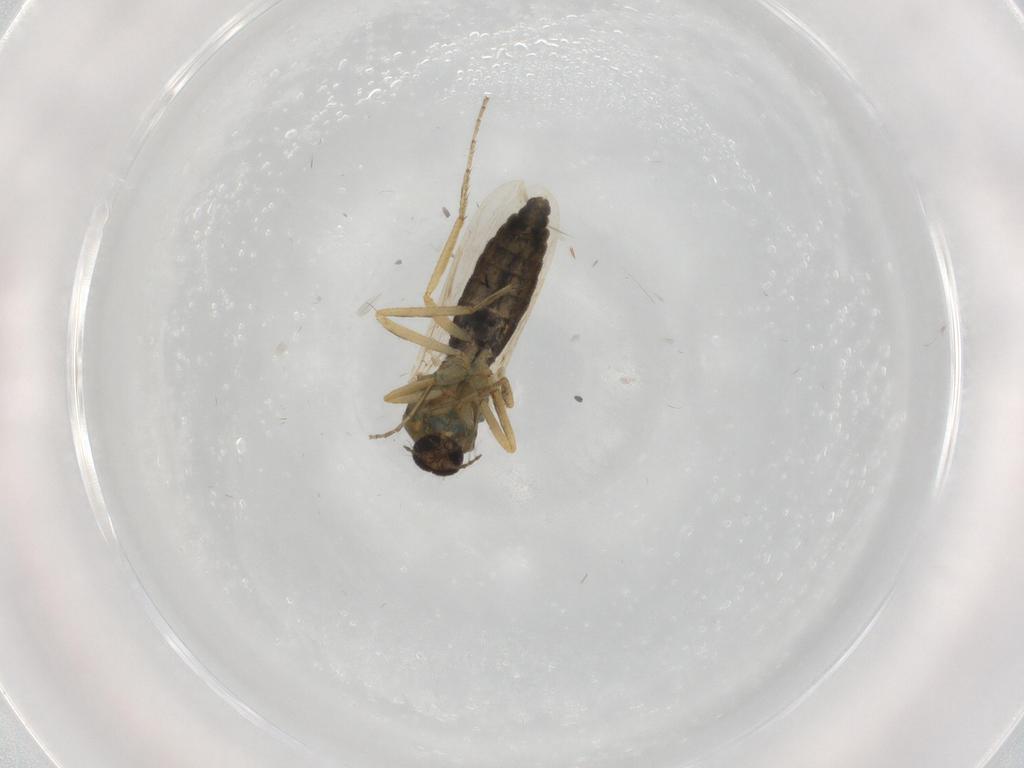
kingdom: Animalia
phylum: Arthropoda
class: Insecta
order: Diptera
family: Ceratopogonidae
